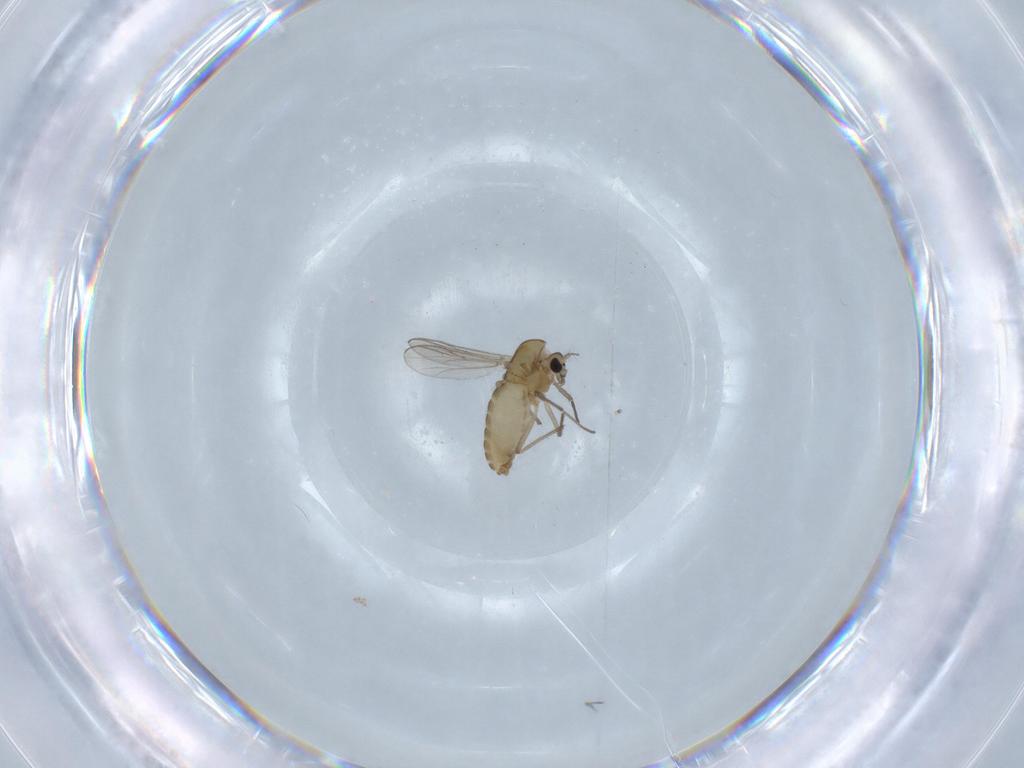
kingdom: Animalia
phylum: Arthropoda
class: Insecta
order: Diptera
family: Chironomidae
